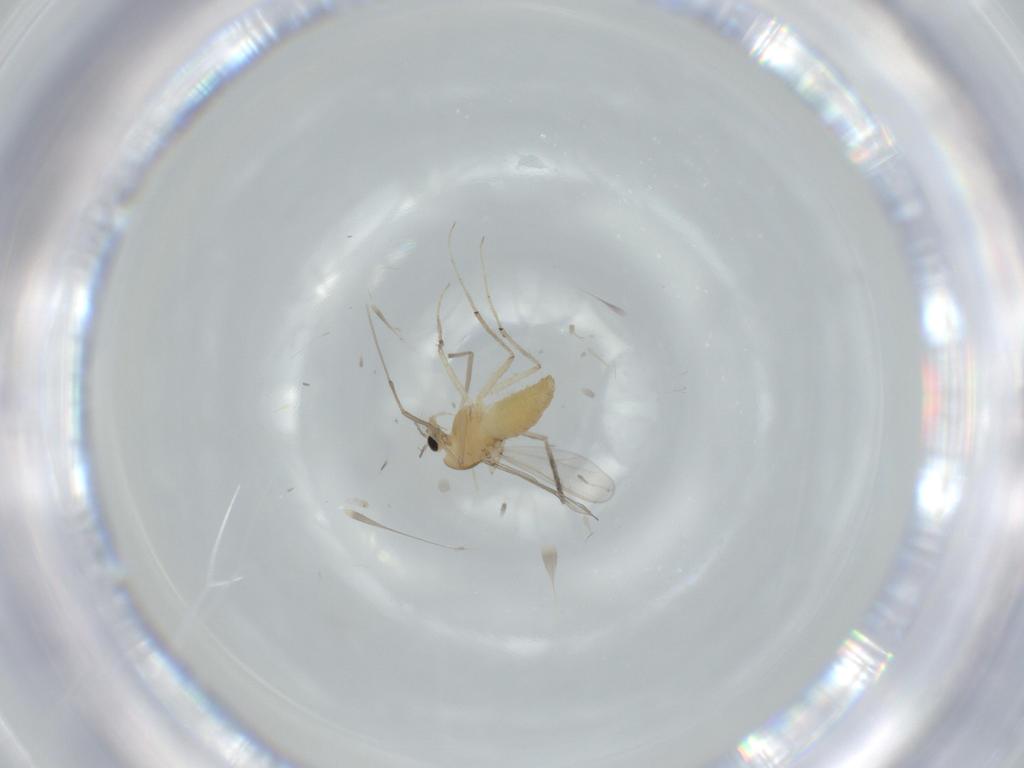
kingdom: Animalia
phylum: Arthropoda
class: Insecta
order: Diptera
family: Chironomidae
